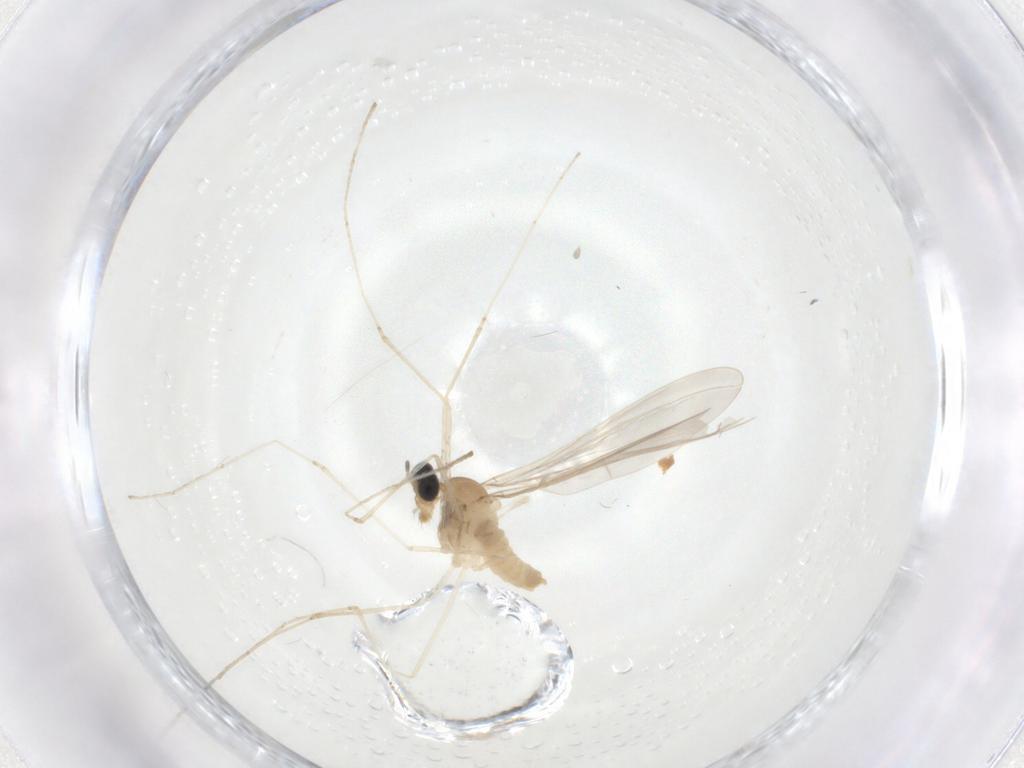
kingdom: Animalia
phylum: Arthropoda
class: Insecta
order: Diptera
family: Cecidomyiidae
